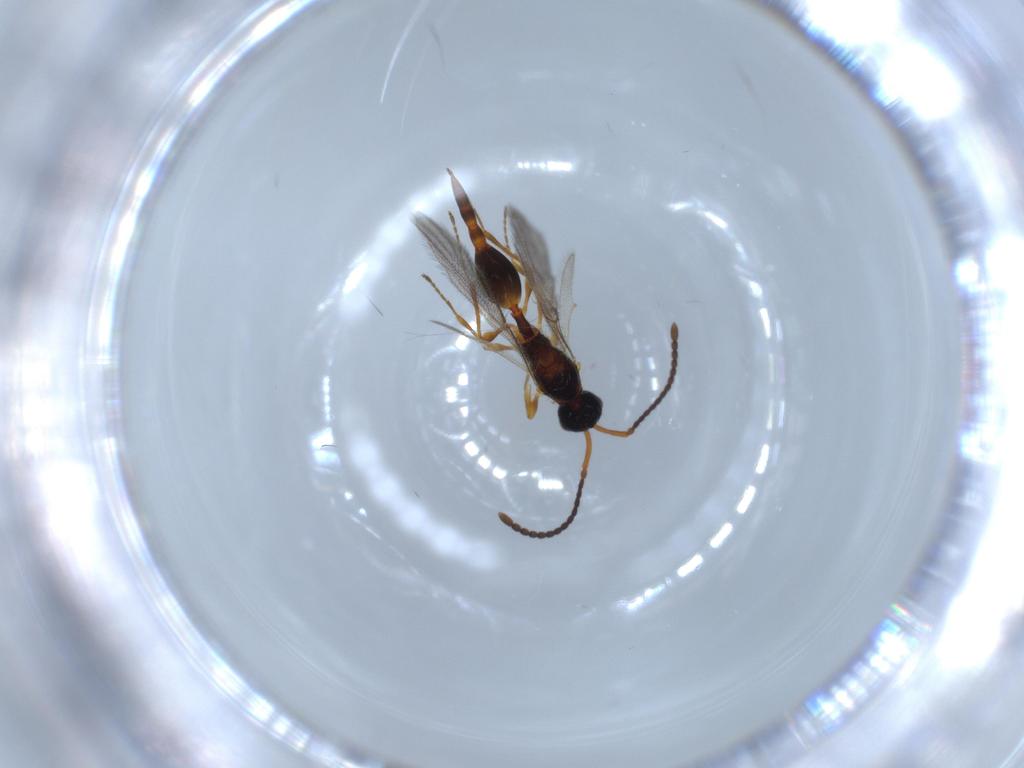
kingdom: Animalia
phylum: Arthropoda
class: Insecta
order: Hymenoptera
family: Diapriidae
